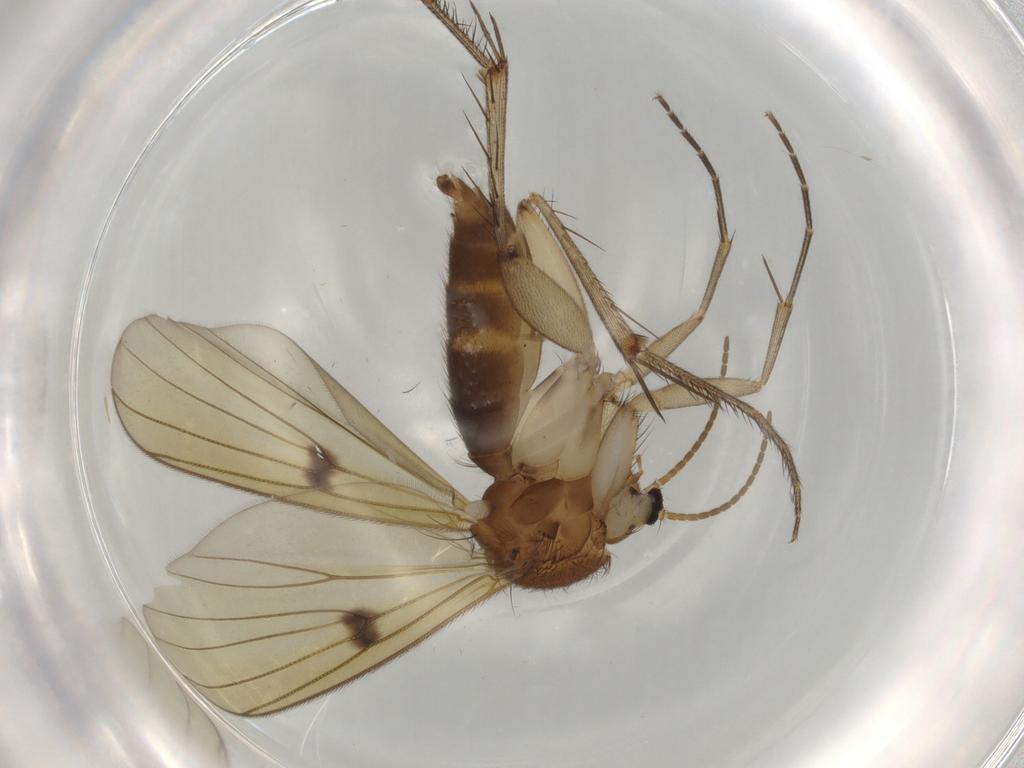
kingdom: Animalia
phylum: Arthropoda
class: Insecta
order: Diptera
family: Mycetophilidae
